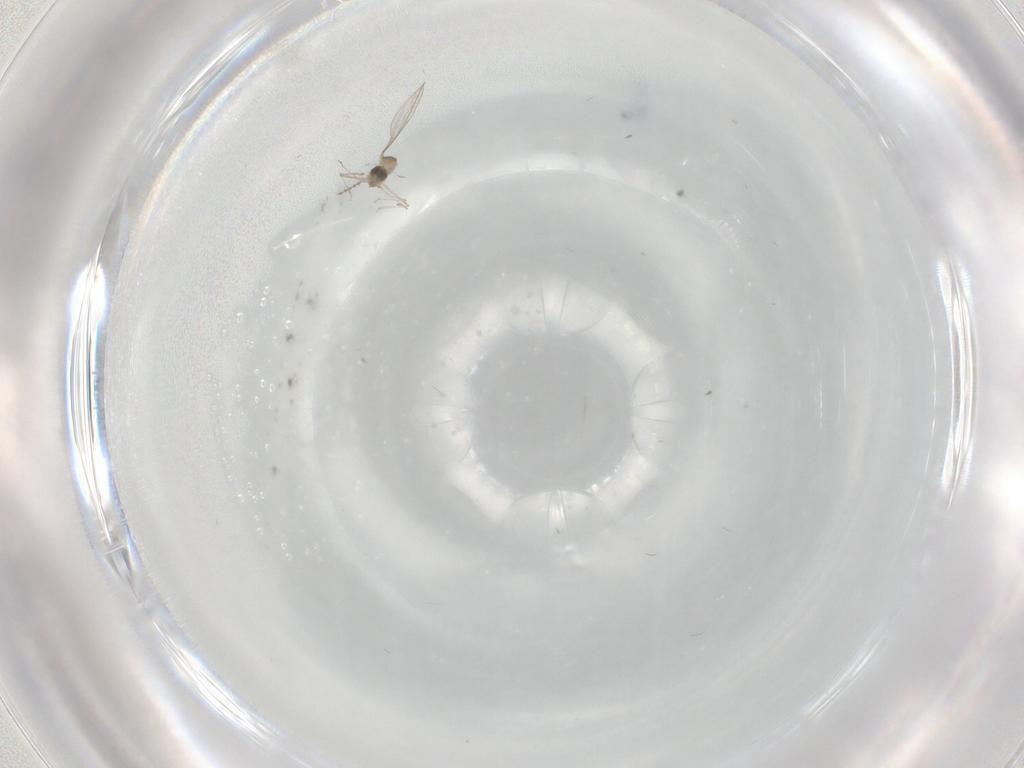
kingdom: Animalia
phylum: Arthropoda
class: Insecta
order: Diptera
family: Cecidomyiidae
